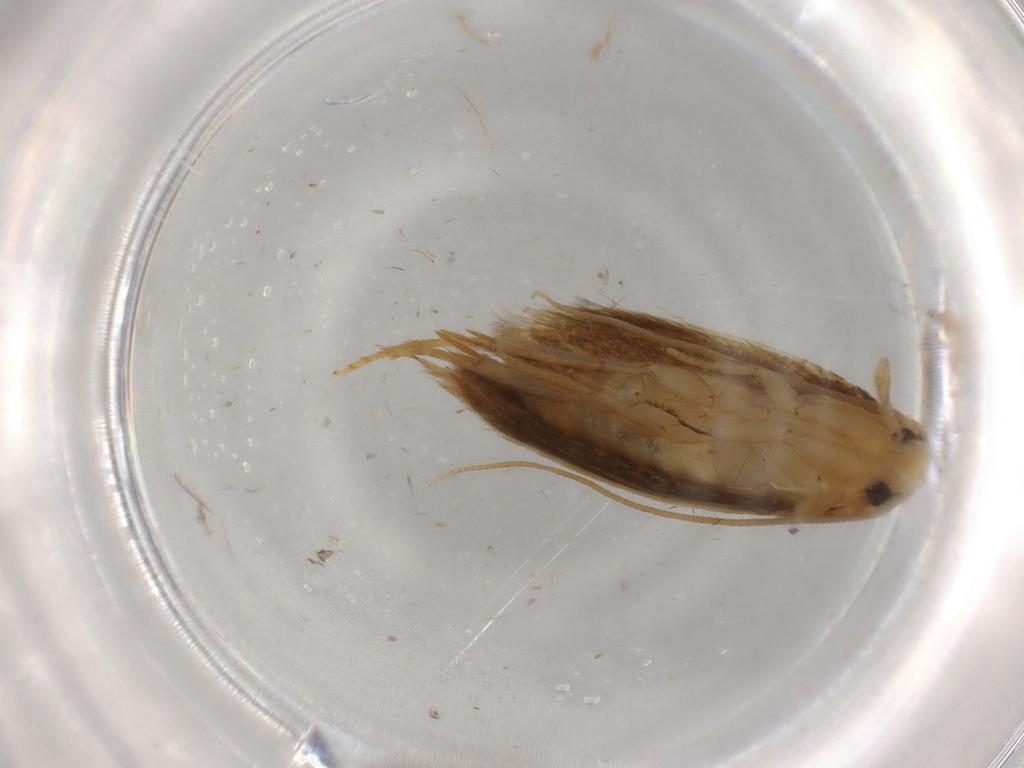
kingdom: Animalia
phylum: Arthropoda
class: Insecta
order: Lepidoptera
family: Tineidae
